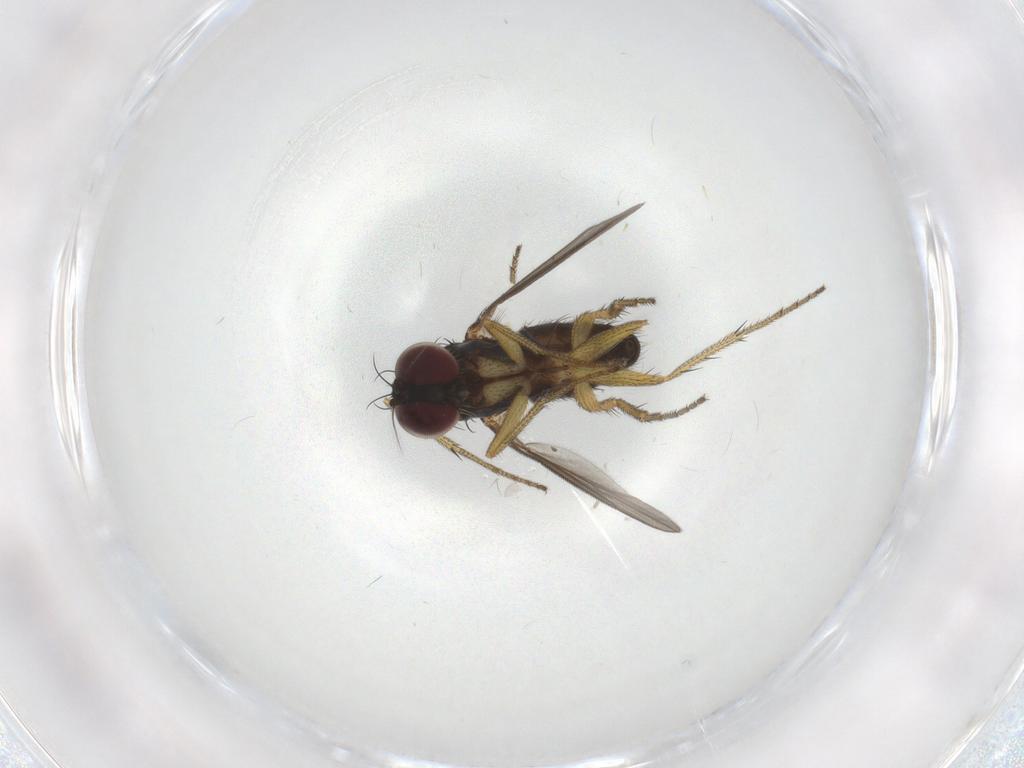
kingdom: Animalia
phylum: Arthropoda
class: Insecta
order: Diptera
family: Dolichopodidae
